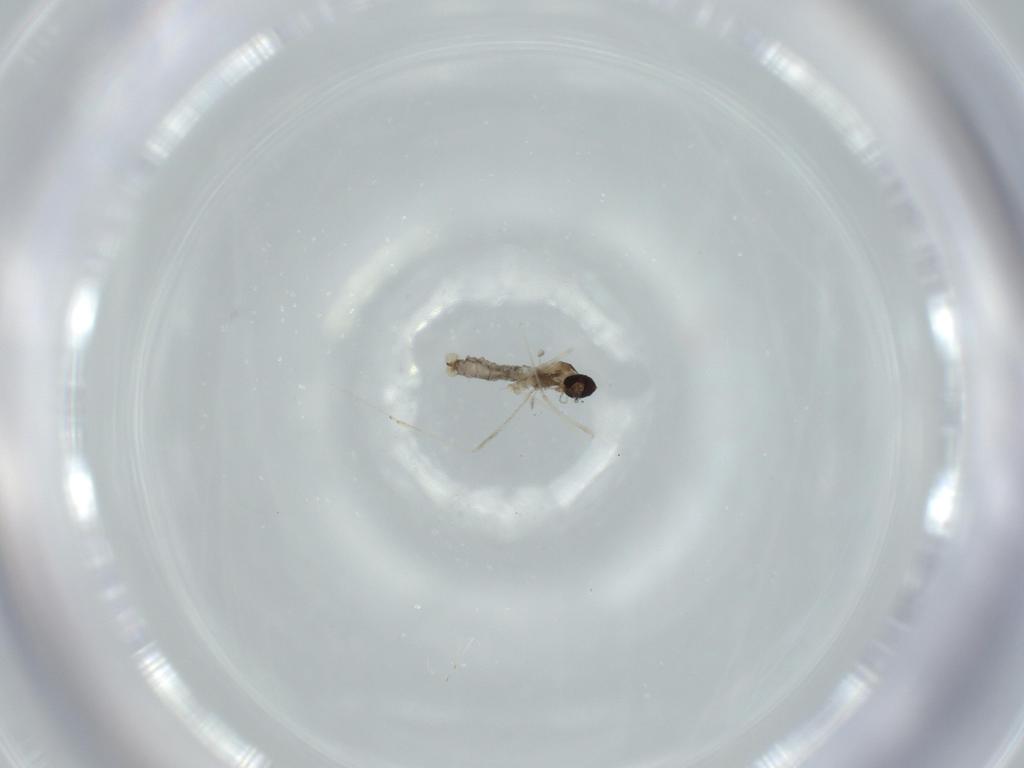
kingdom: Animalia
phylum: Arthropoda
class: Insecta
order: Diptera
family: Cecidomyiidae
